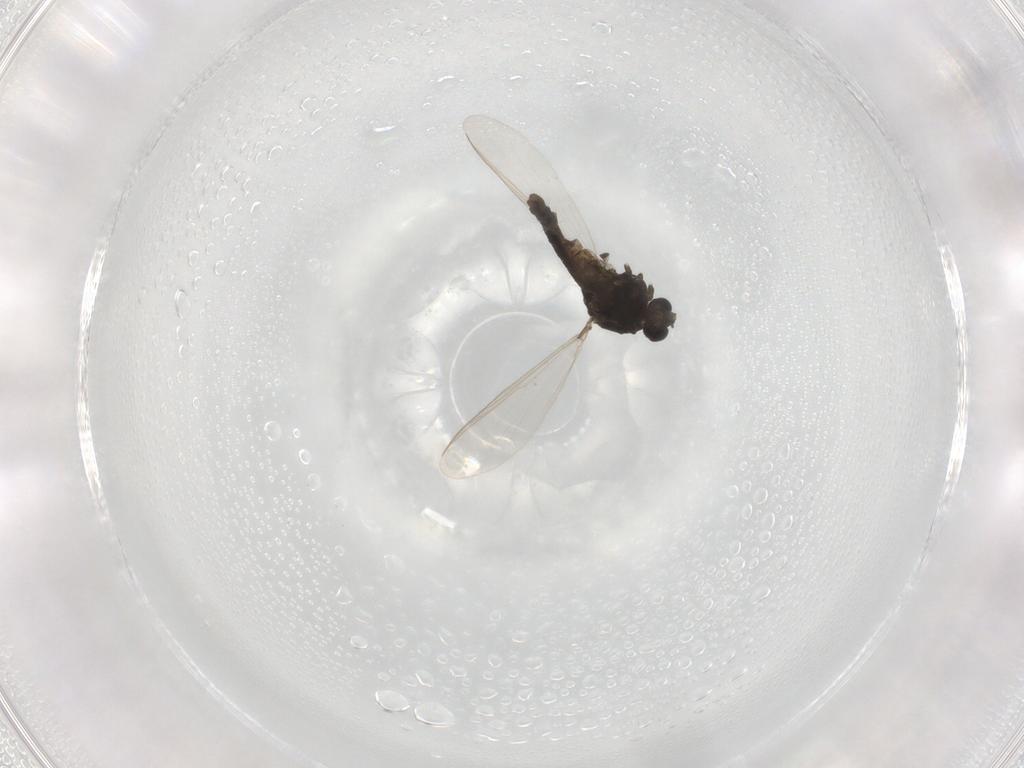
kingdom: Animalia
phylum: Arthropoda
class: Insecta
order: Diptera
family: Chironomidae
